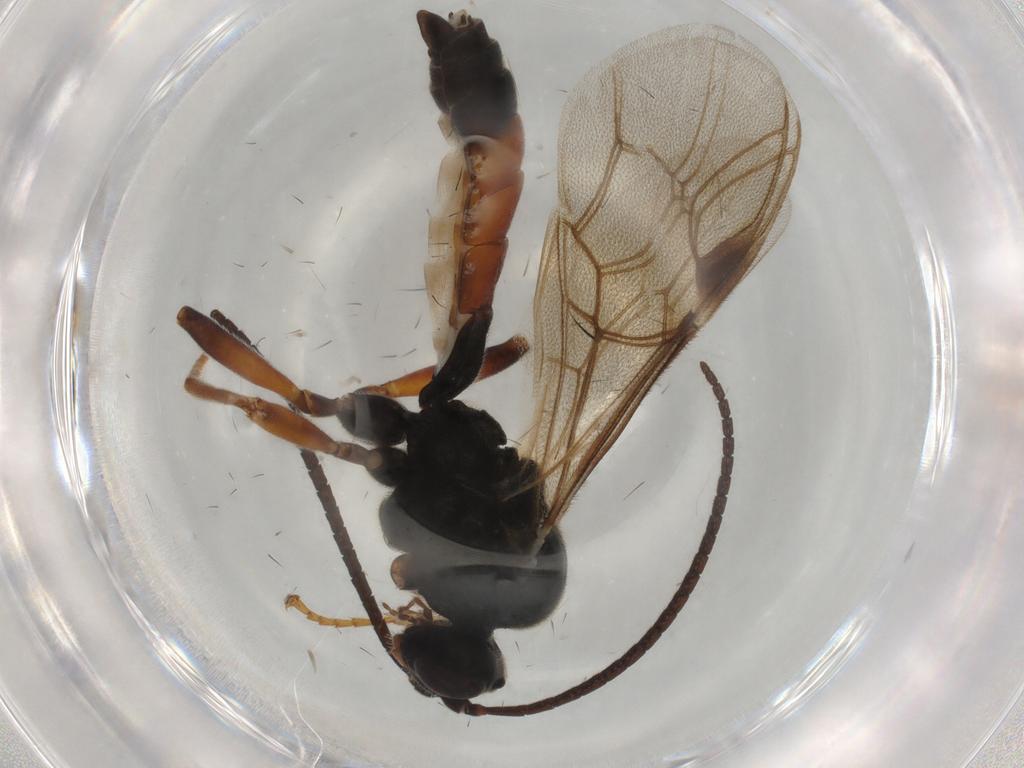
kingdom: Animalia
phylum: Arthropoda
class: Insecta
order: Hymenoptera
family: Ichneumonidae
